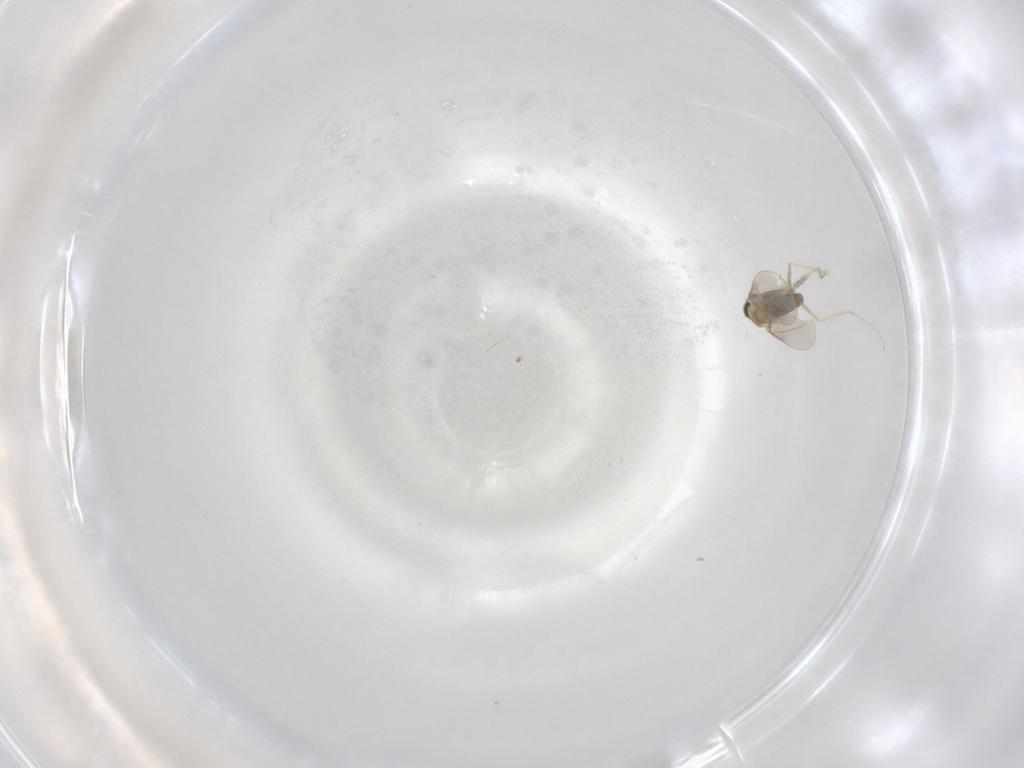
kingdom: Animalia
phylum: Arthropoda
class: Insecta
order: Diptera
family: Cecidomyiidae
